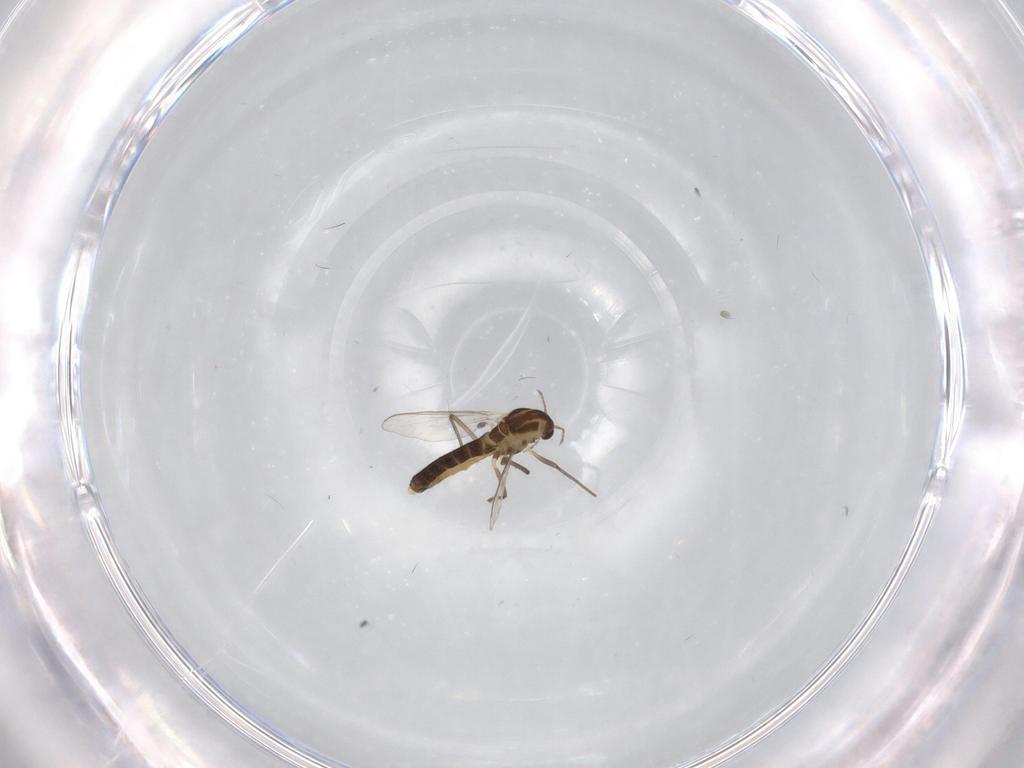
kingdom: Animalia
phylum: Arthropoda
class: Insecta
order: Diptera
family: Chironomidae
